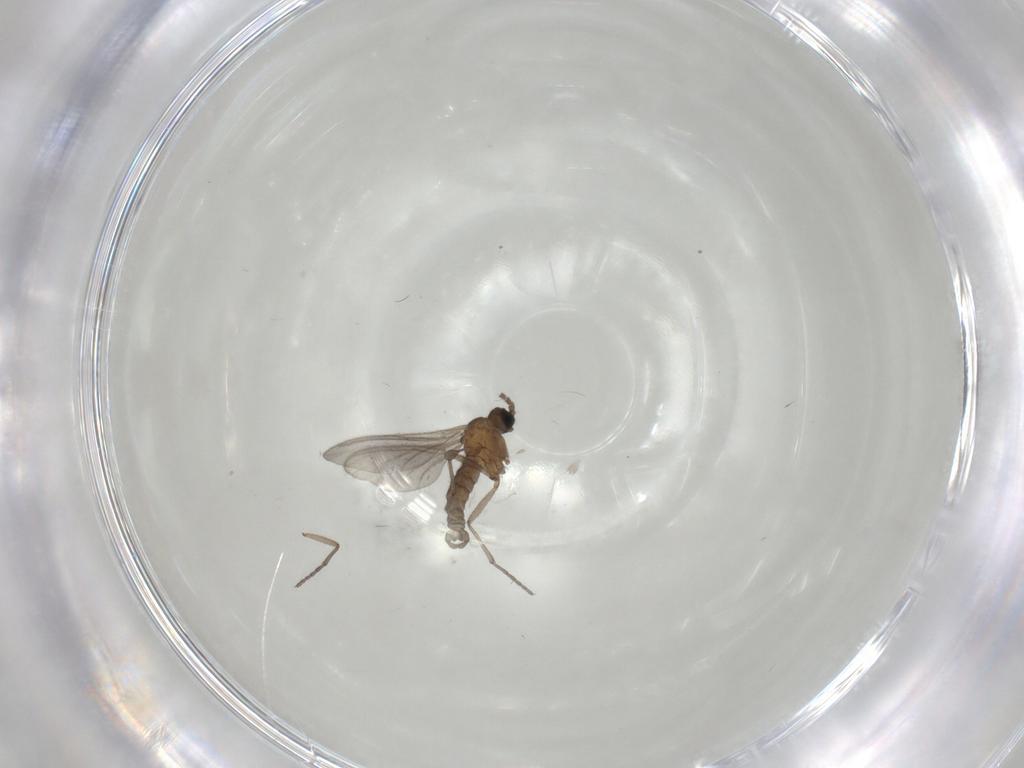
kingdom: Animalia
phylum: Arthropoda
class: Insecta
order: Diptera
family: Sciaridae
